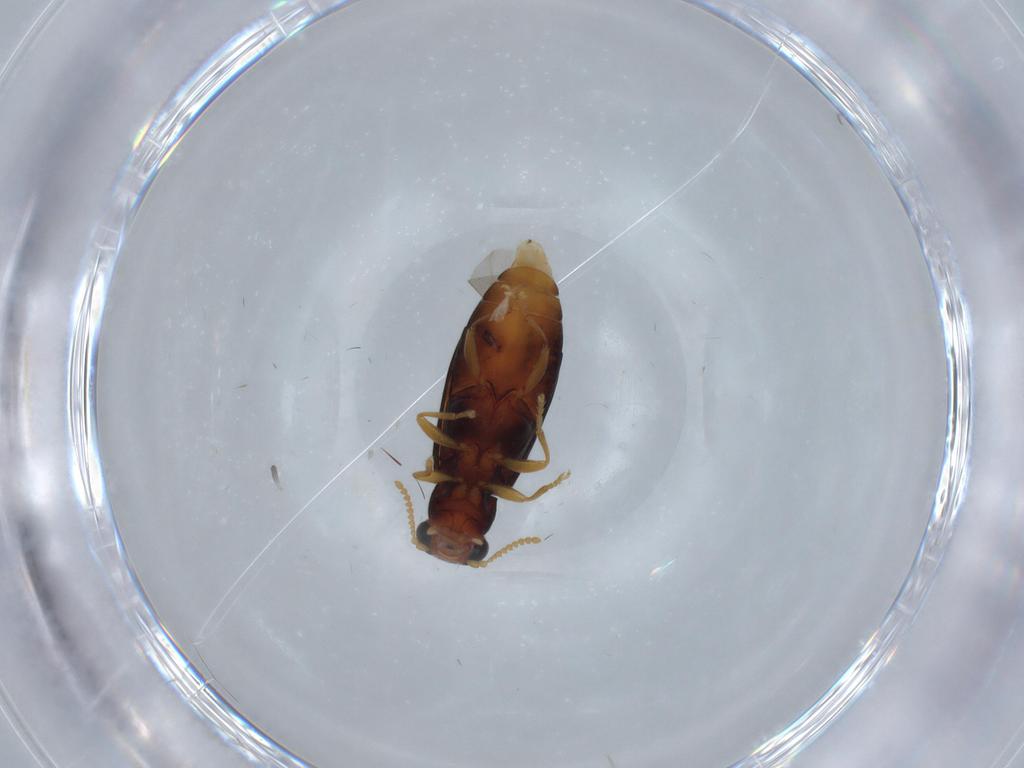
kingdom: Animalia
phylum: Arthropoda
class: Insecta
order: Coleoptera
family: Mycteridae
